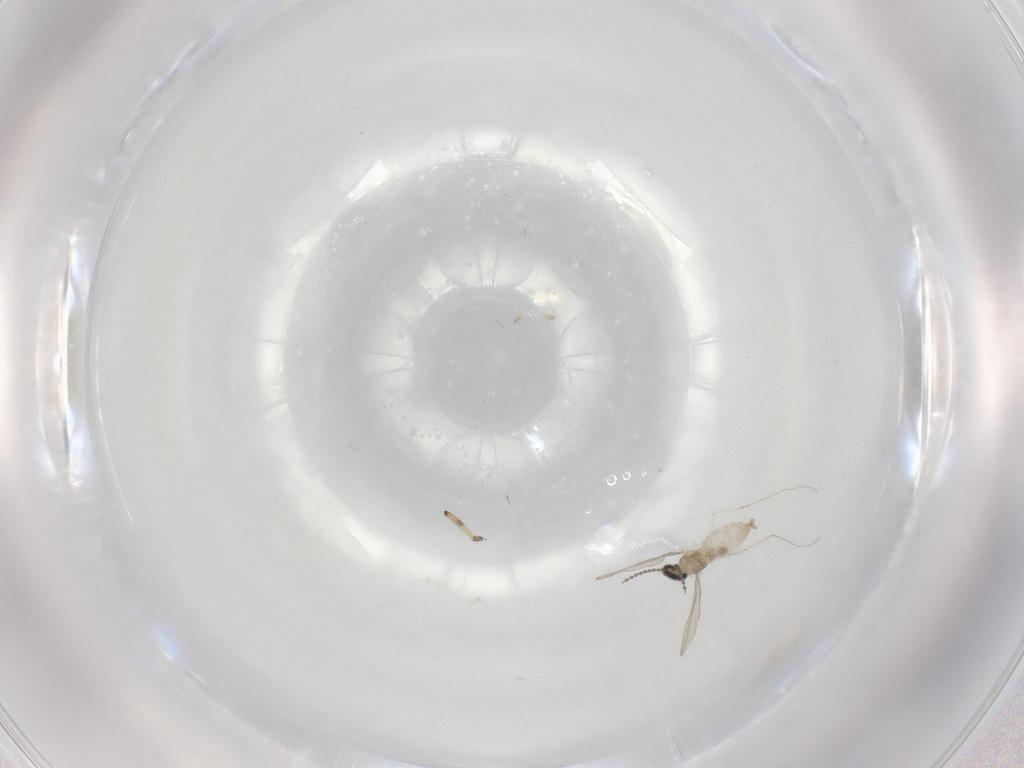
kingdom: Animalia
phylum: Arthropoda
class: Insecta
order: Diptera
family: Cecidomyiidae
